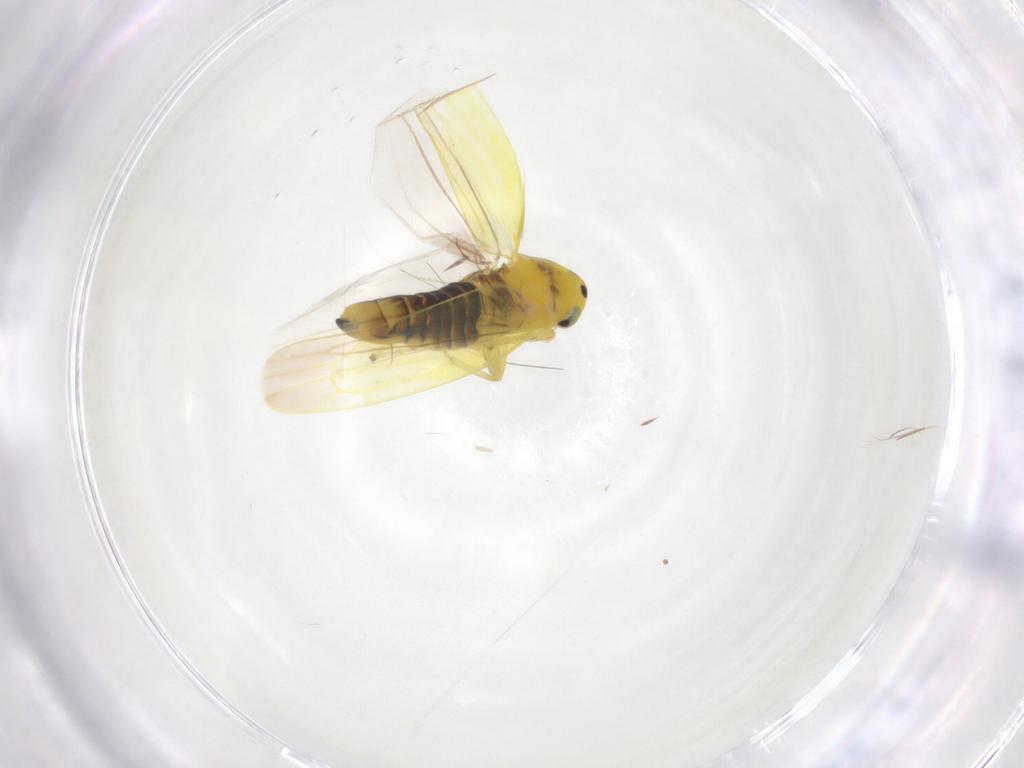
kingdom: Animalia
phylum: Arthropoda
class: Insecta
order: Hemiptera
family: Cicadellidae
